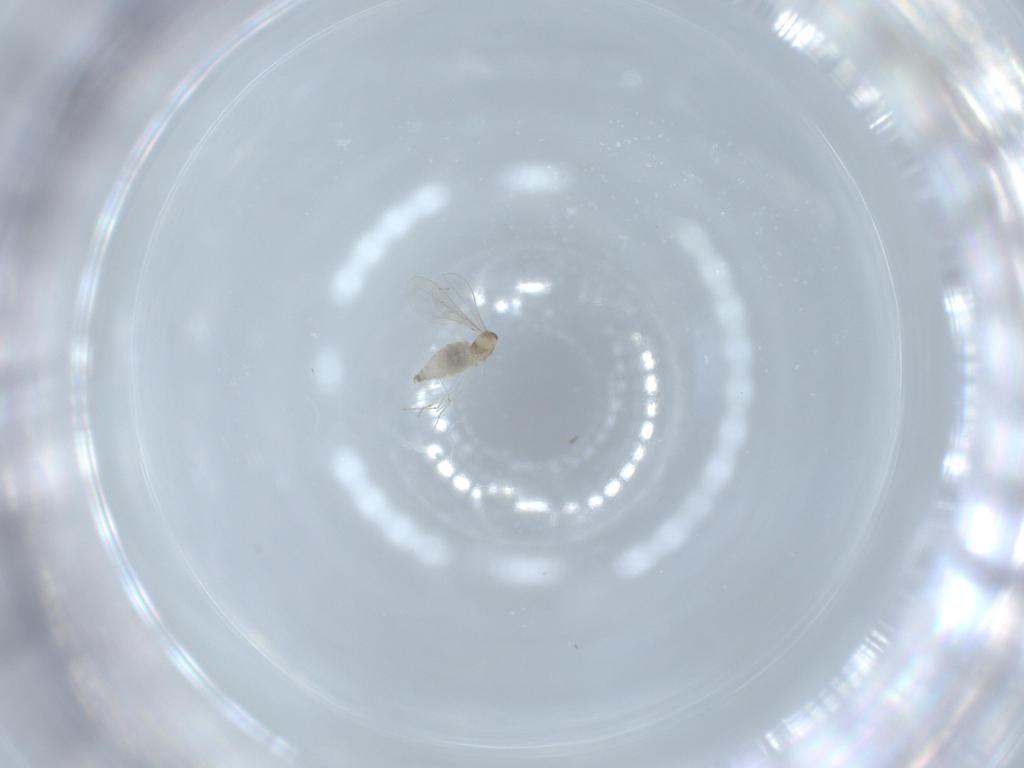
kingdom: Animalia
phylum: Arthropoda
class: Insecta
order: Diptera
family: Cecidomyiidae
